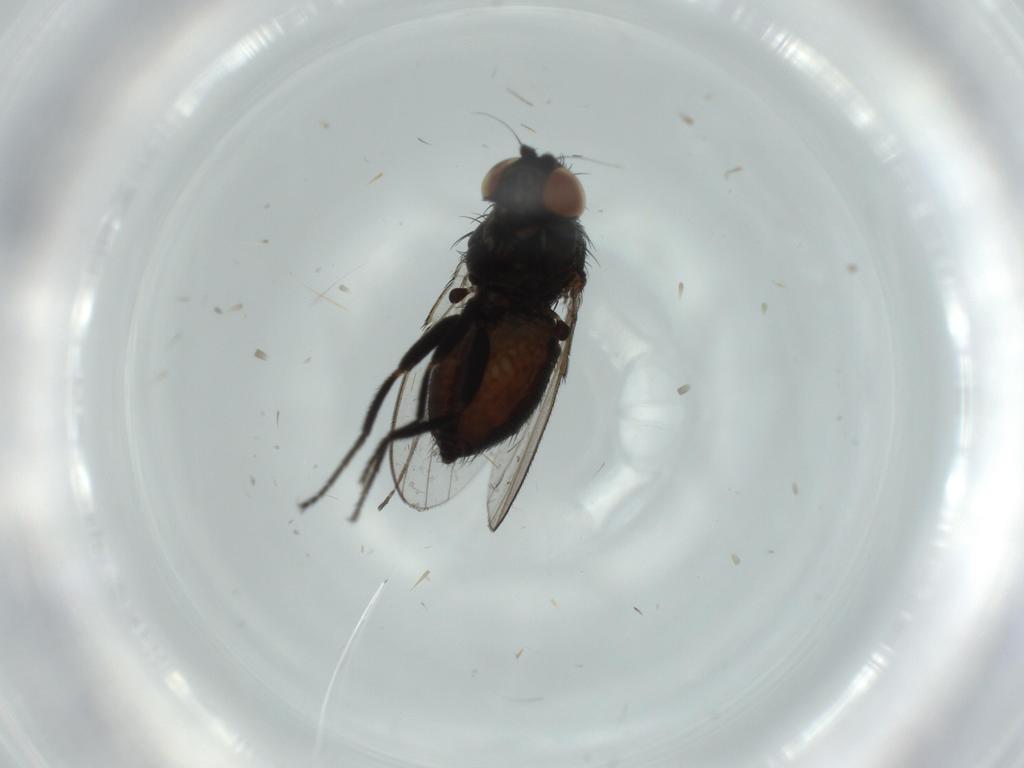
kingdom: Animalia
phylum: Arthropoda
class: Insecta
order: Diptera
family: Milichiidae
